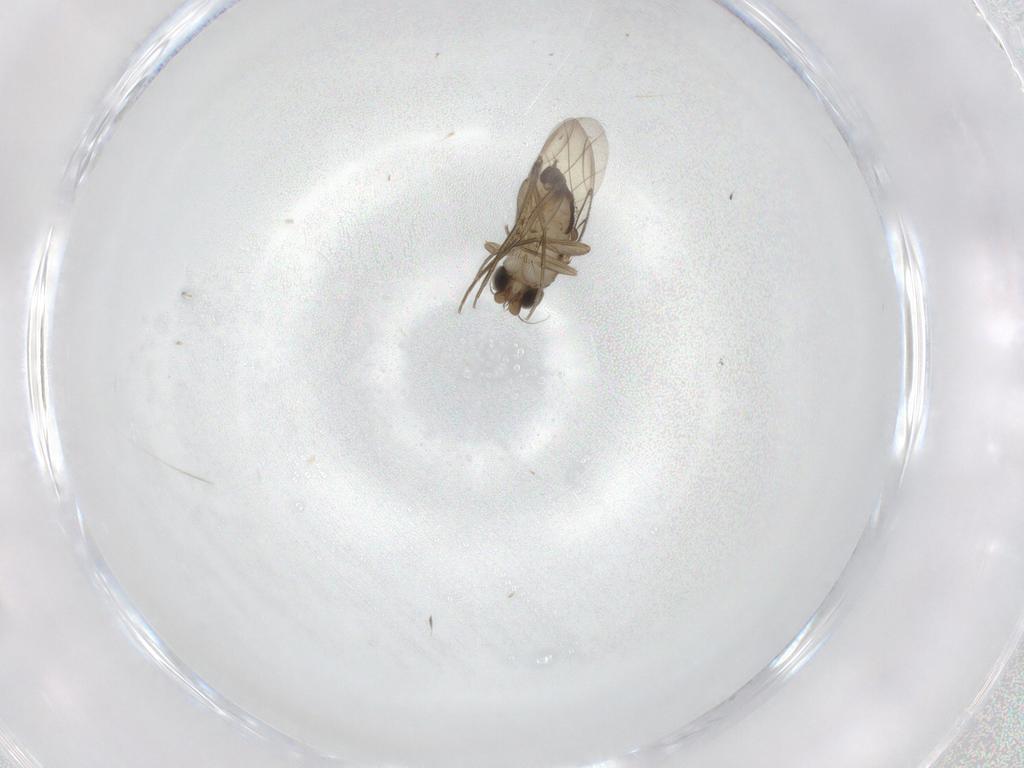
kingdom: Animalia
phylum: Arthropoda
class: Insecta
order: Diptera
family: Phoridae
